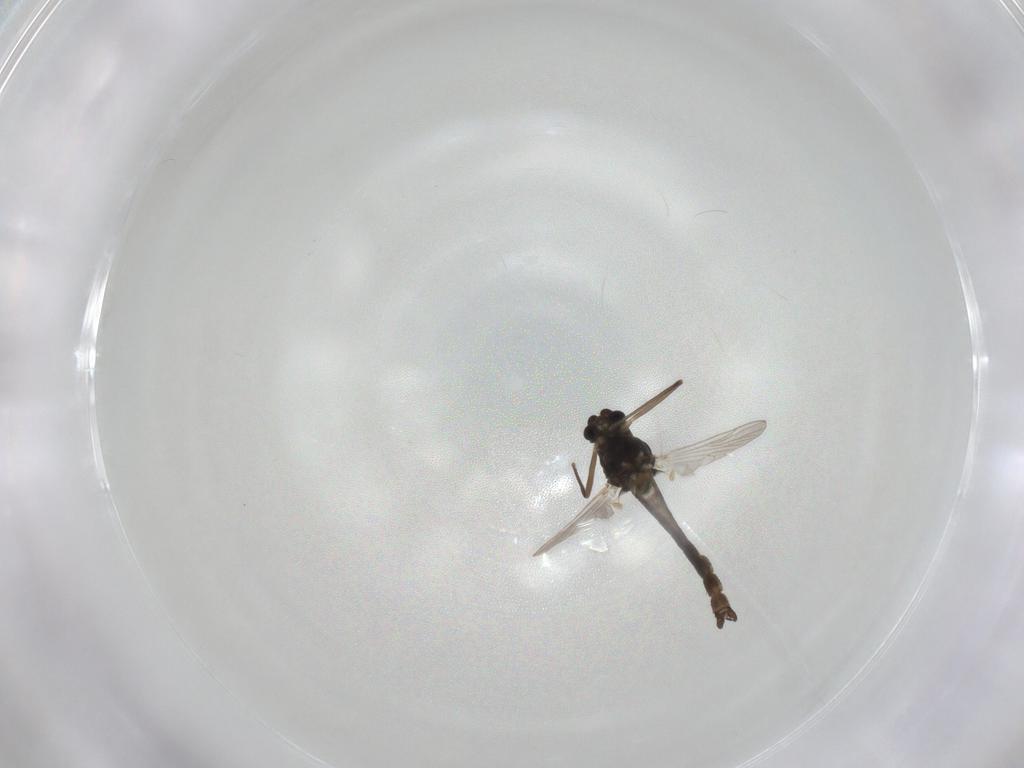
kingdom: Animalia
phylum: Arthropoda
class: Insecta
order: Diptera
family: Chironomidae
